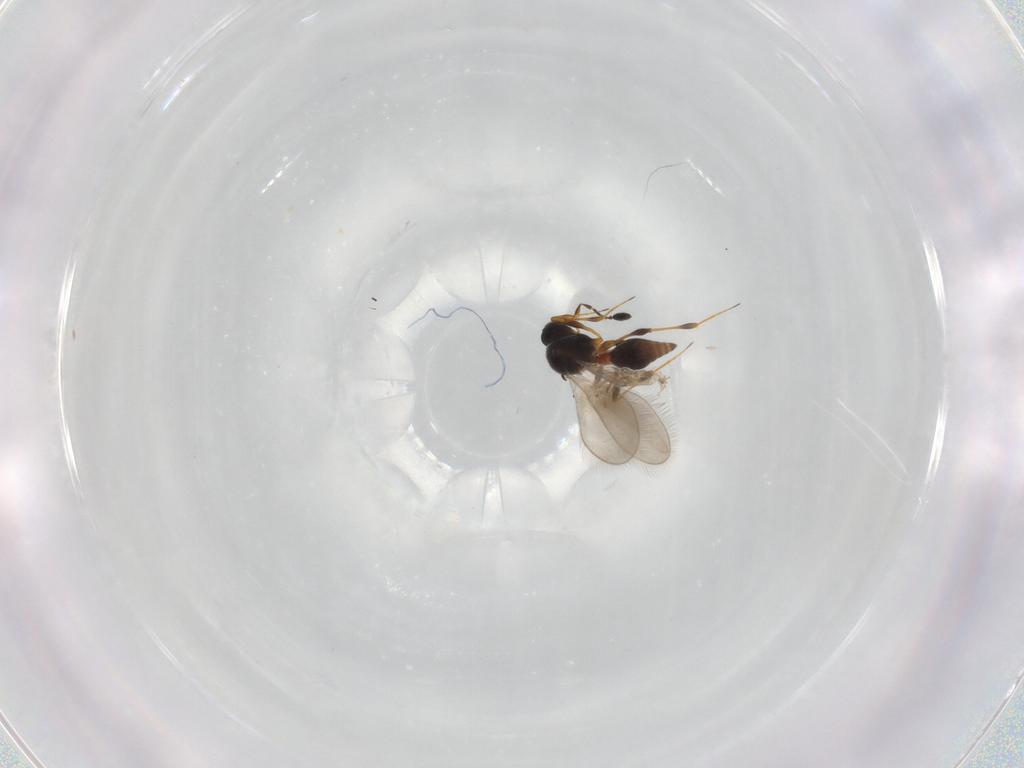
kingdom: Animalia
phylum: Arthropoda
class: Insecta
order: Hymenoptera
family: Platygastridae
